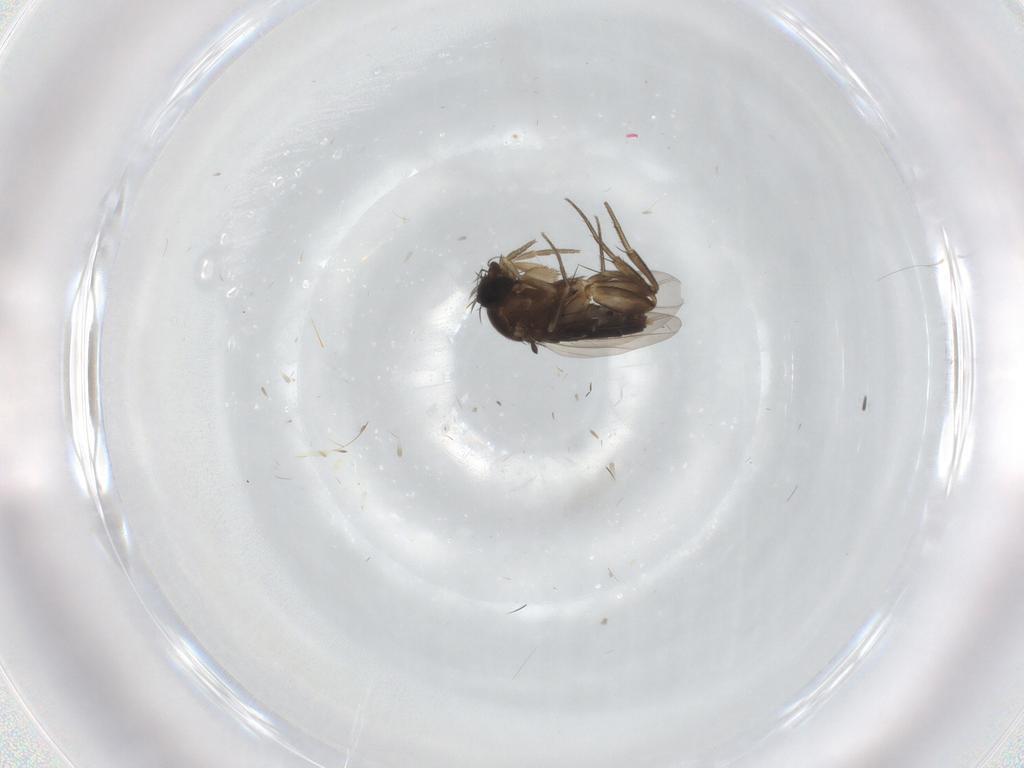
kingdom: Animalia
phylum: Arthropoda
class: Insecta
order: Diptera
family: Phoridae
